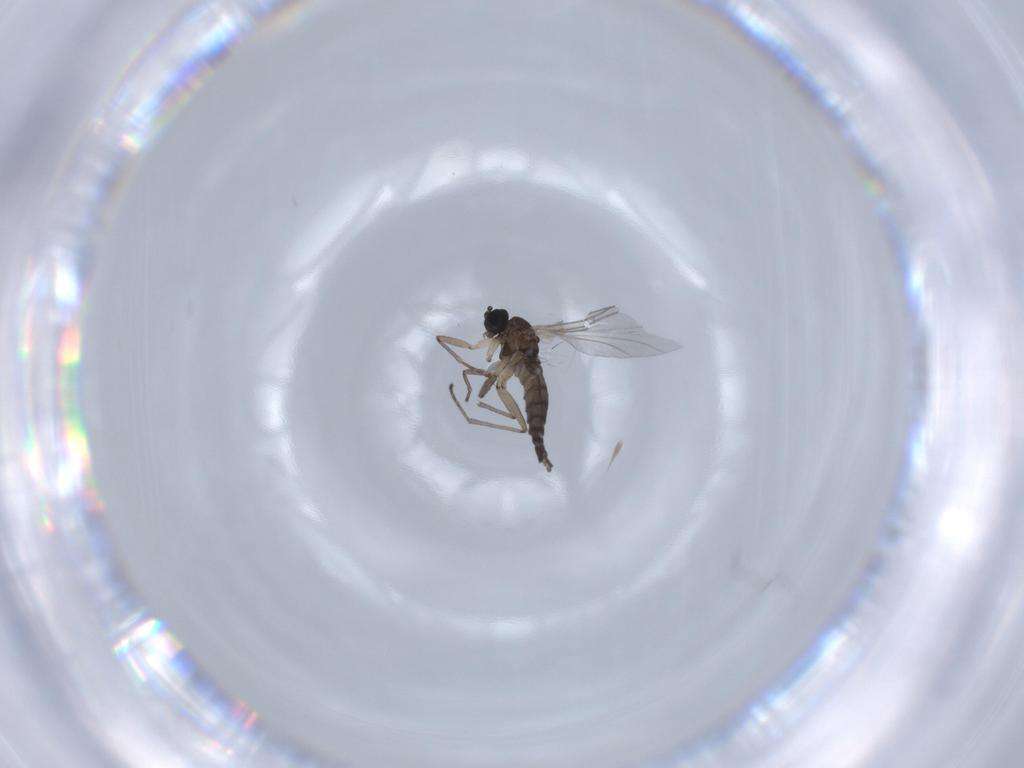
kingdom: Animalia
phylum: Arthropoda
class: Insecta
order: Diptera
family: Chironomidae
